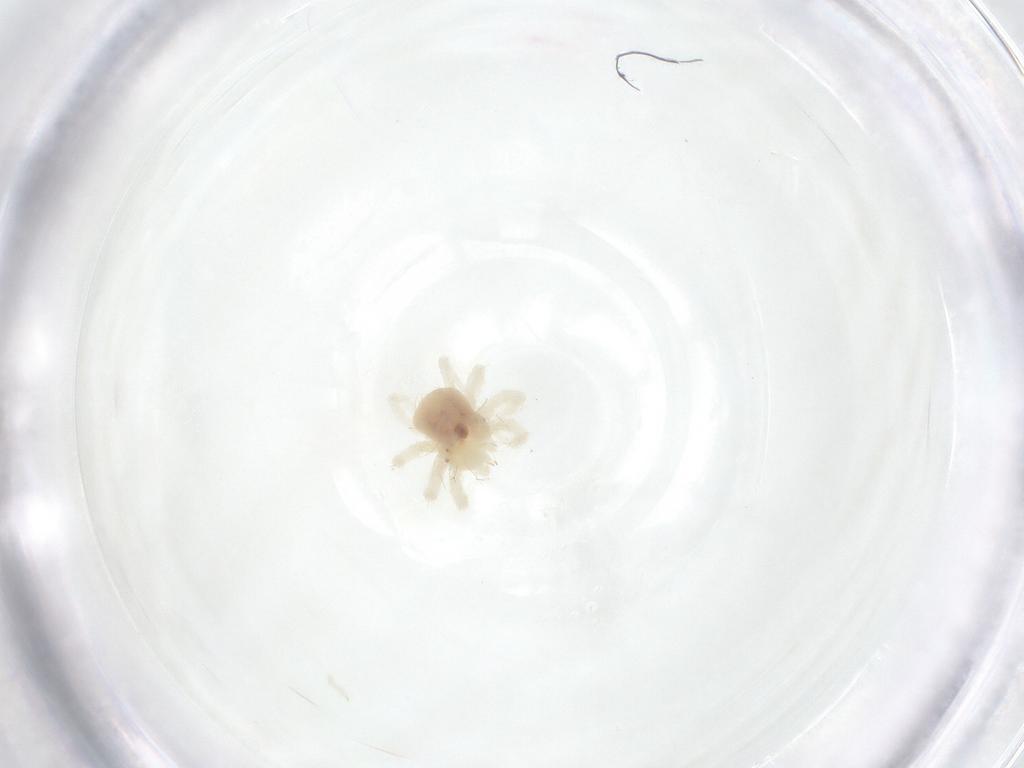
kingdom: Animalia
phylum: Arthropoda
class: Arachnida
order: Trombidiformes
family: Anystidae
